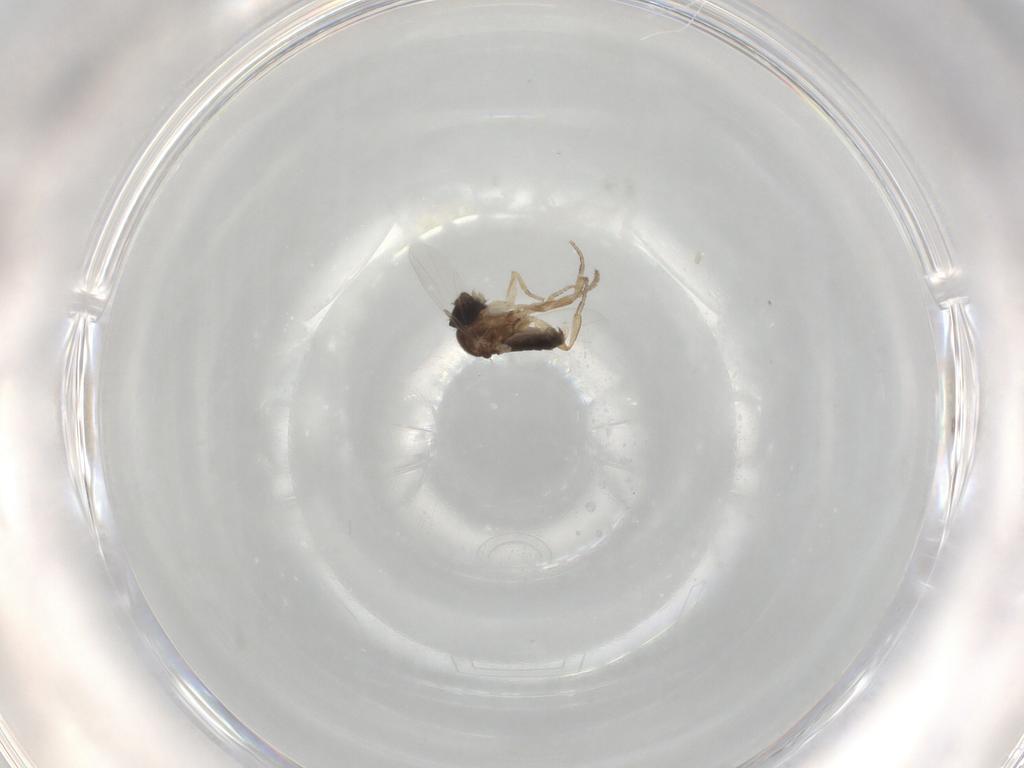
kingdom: Animalia
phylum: Arthropoda
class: Insecta
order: Diptera
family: Phoridae
